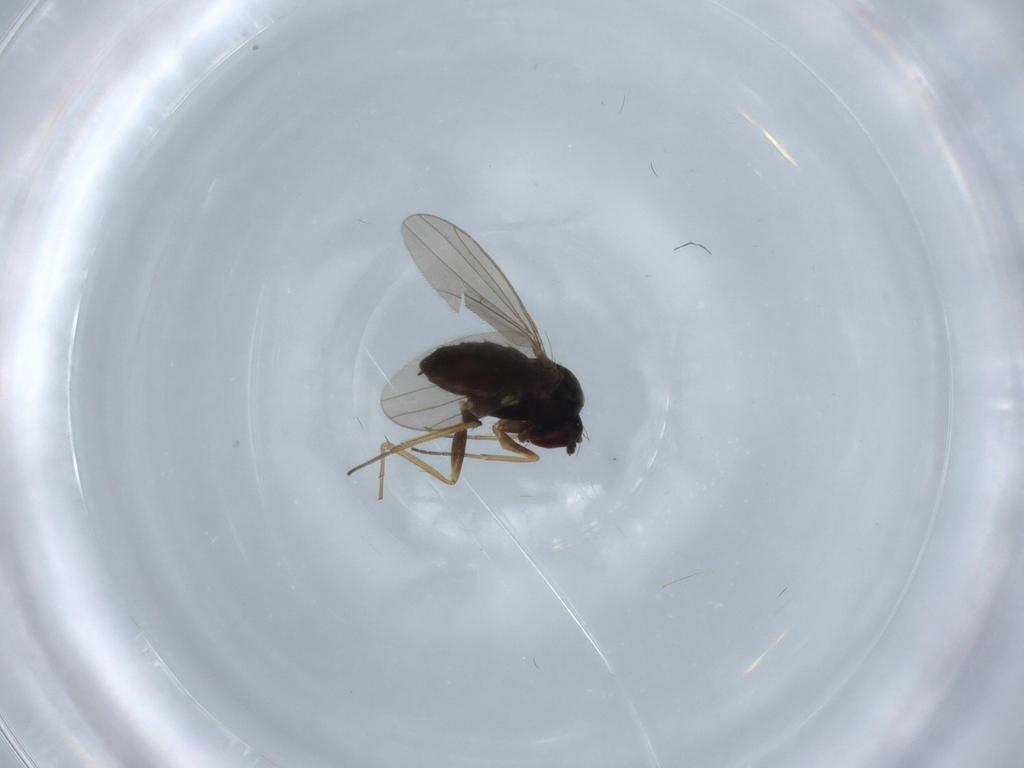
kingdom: Animalia
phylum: Arthropoda
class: Insecta
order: Diptera
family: Dolichopodidae
